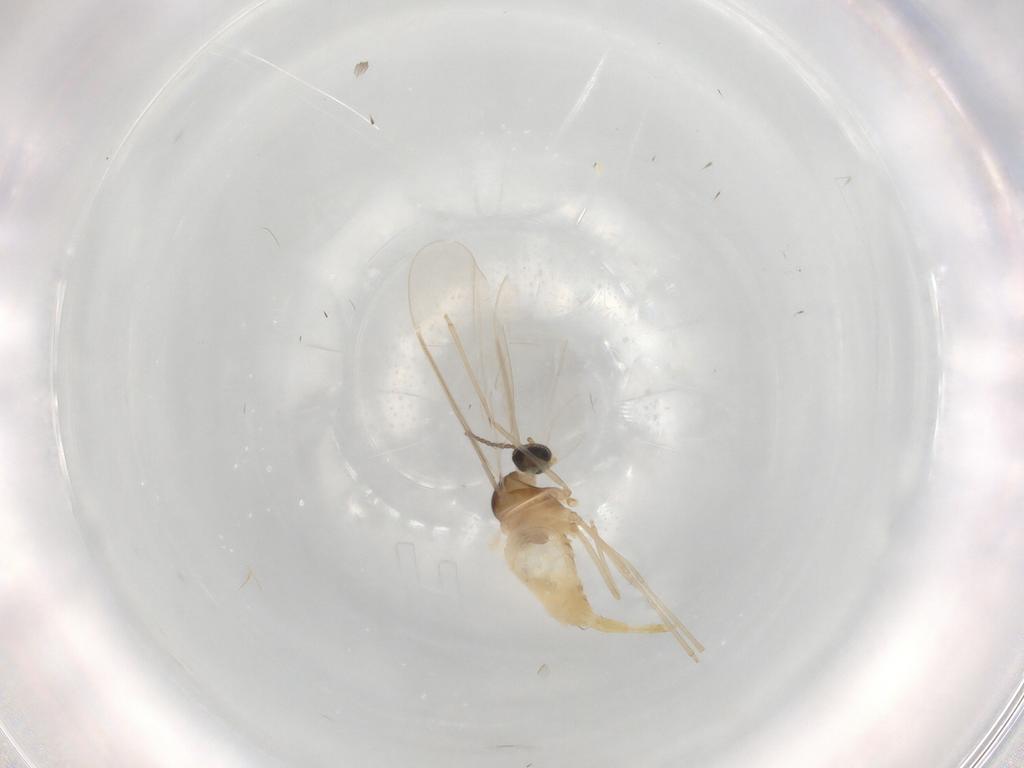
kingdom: Animalia
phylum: Arthropoda
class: Insecta
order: Diptera
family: Cecidomyiidae
